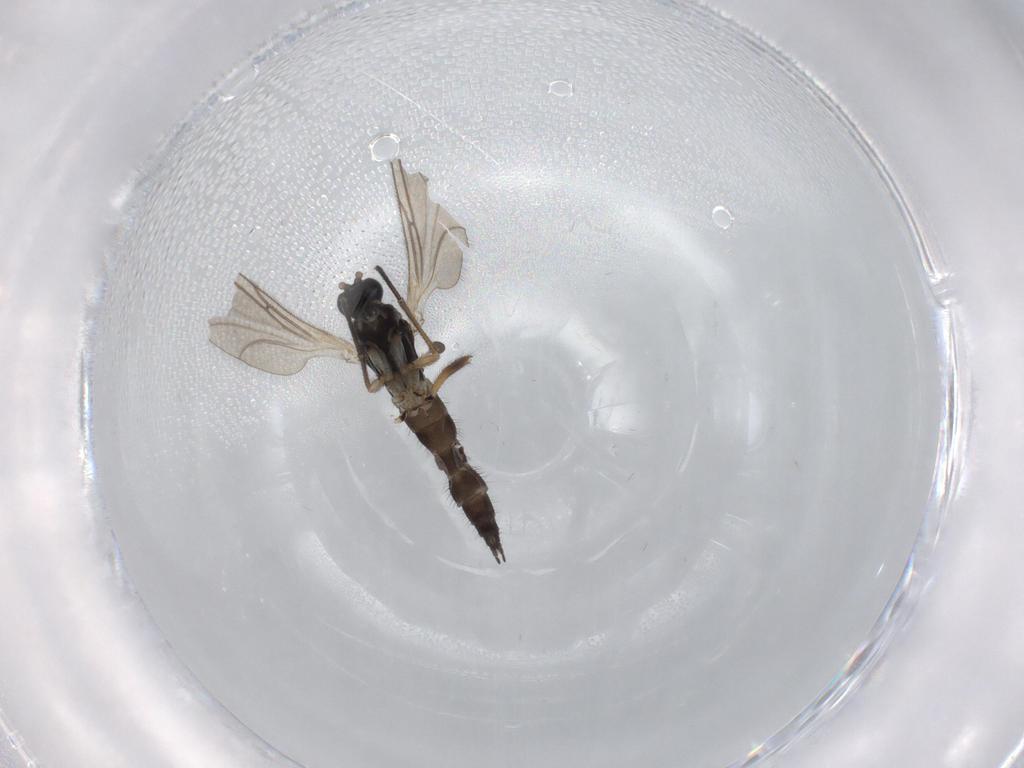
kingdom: Animalia
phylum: Arthropoda
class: Insecta
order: Diptera
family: Sciaridae
